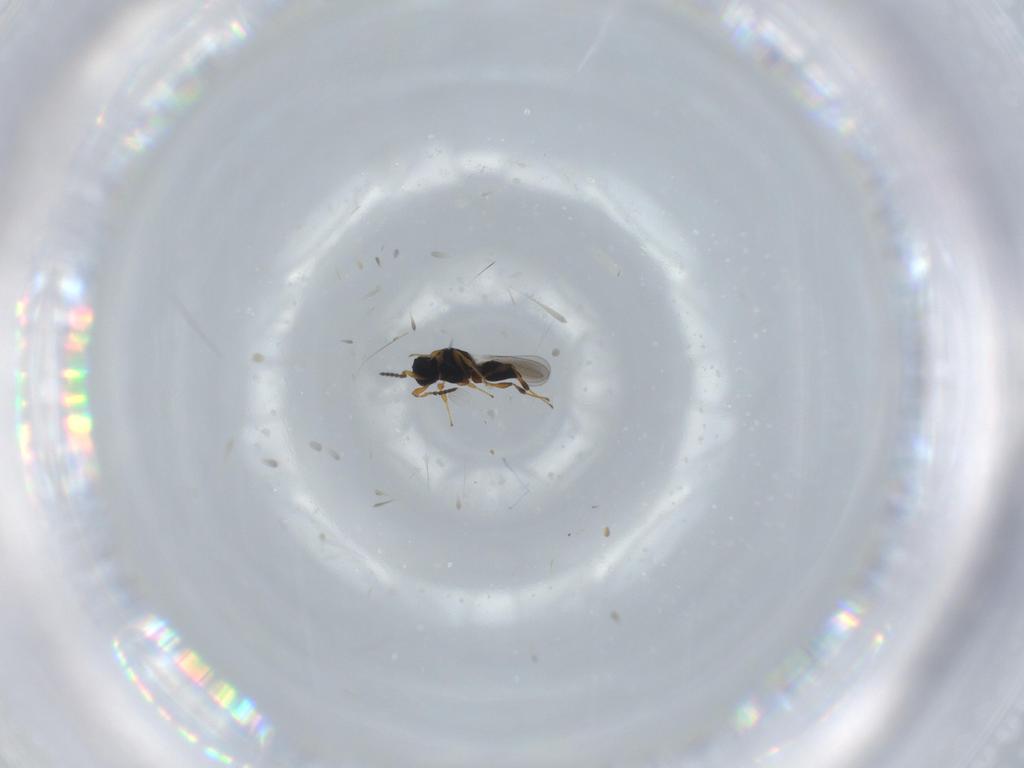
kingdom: Animalia
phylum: Arthropoda
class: Insecta
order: Hymenoptera
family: Platygastridae
